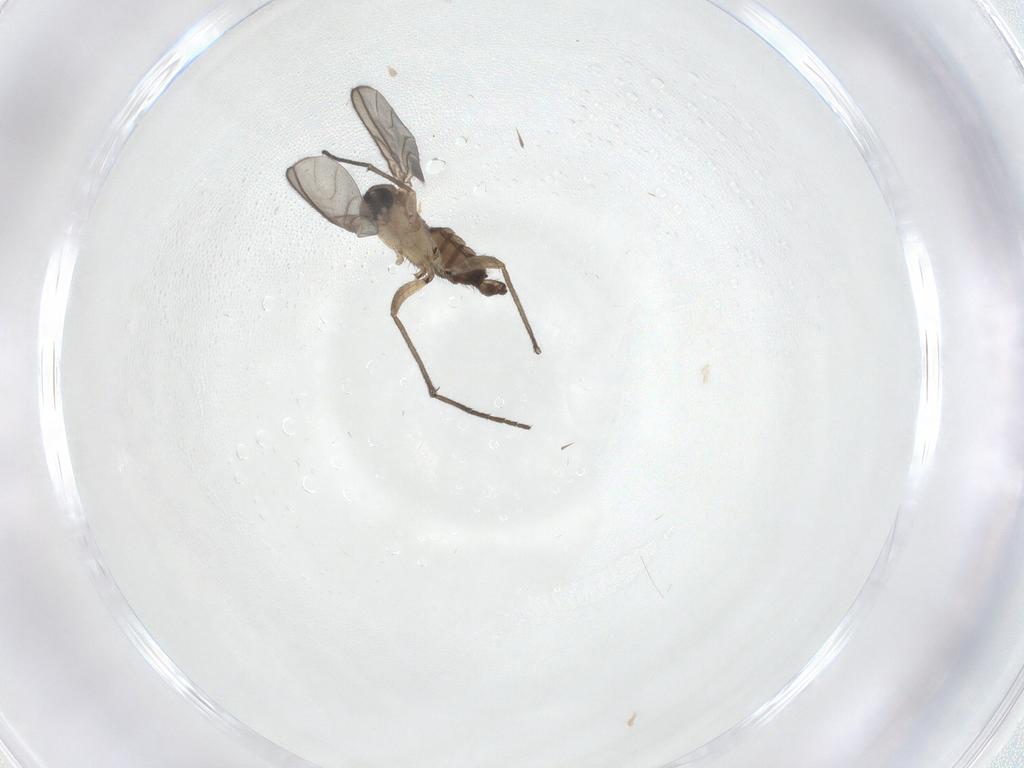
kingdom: Animalia
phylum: Arthropoda
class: Insecta
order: Diptera
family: Sciaridae
